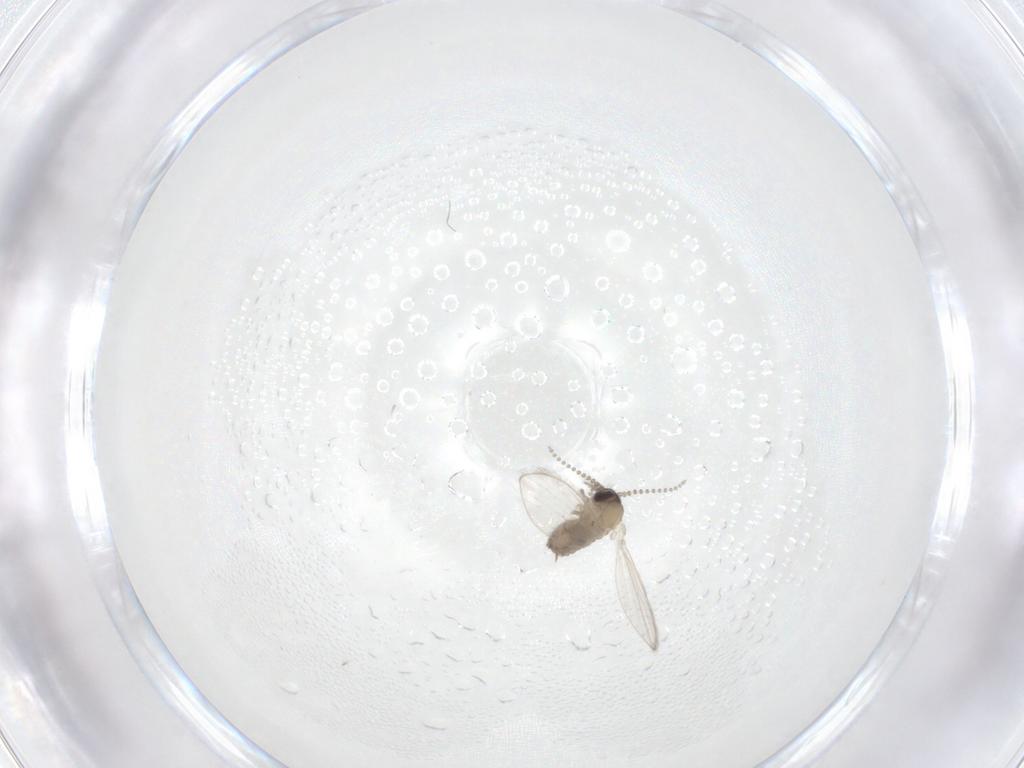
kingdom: Animalia
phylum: Arthropoda
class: Insecta
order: Diptera
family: Psychodidae
